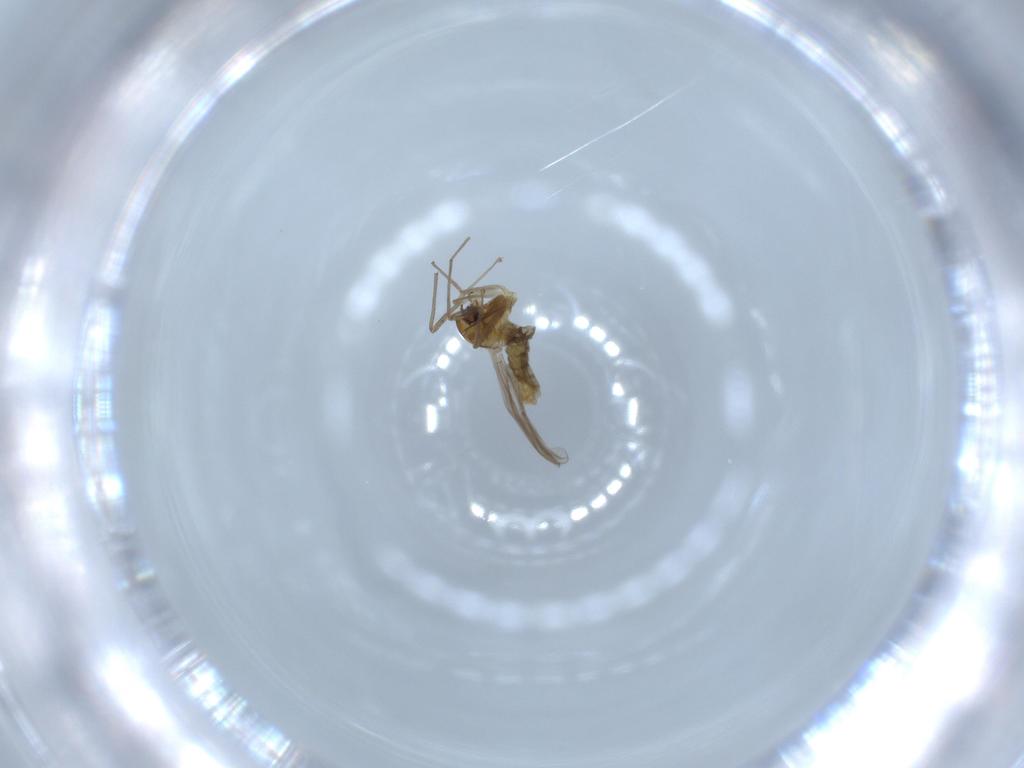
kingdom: Animalia
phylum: Arthropoda
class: Insecta
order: Diptera
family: Sciaridae
